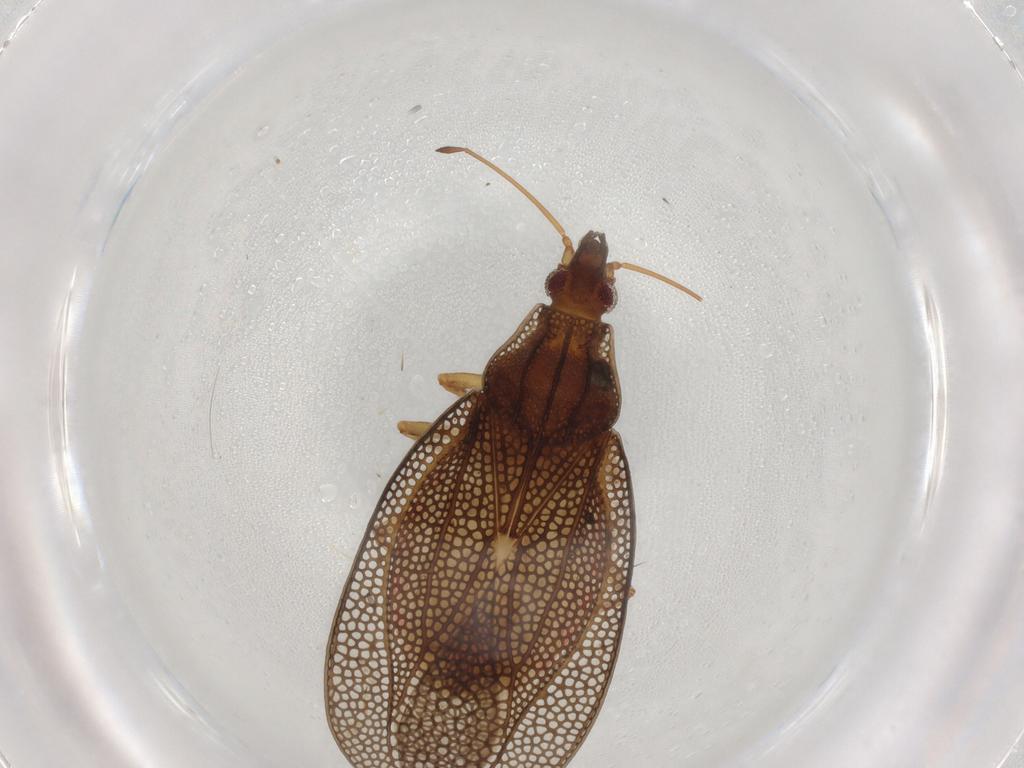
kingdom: Animalia
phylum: Arthropoda
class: Insecta
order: Hemiptera
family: Tingidae
